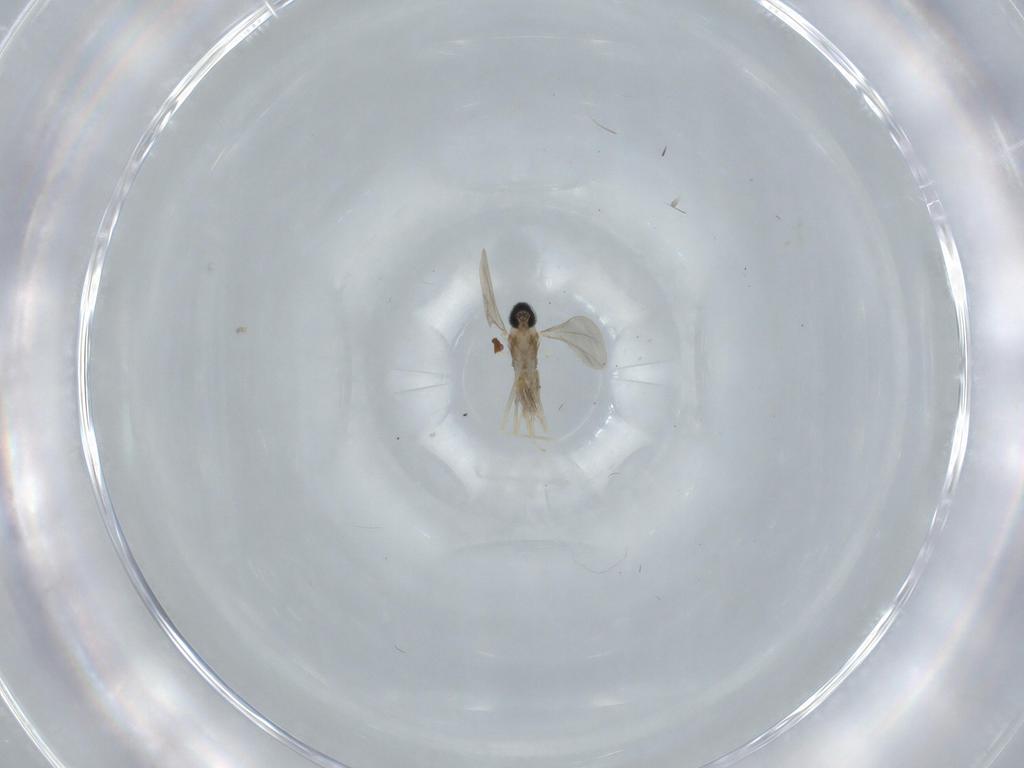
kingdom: Animalia
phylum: Arthropoda
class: Insecta
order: Diptera
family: Cecidomyiidae
